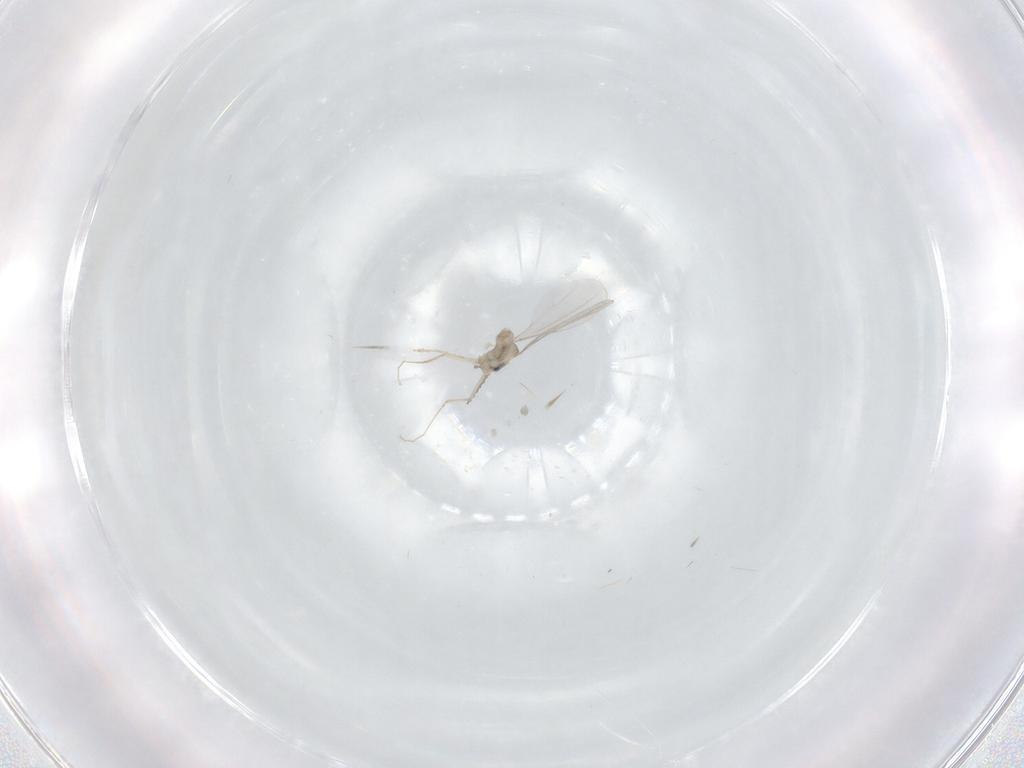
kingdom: Animalia
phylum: Arthropoda
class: Insecta
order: Diptera
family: Cecidomyiidae
